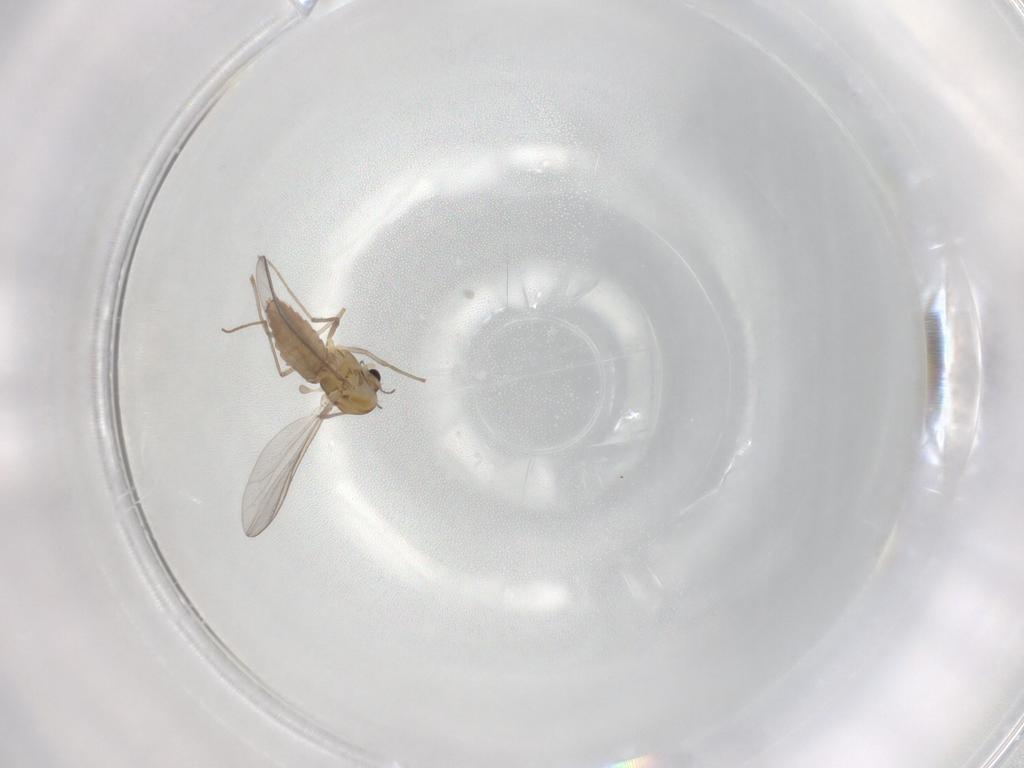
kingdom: Animalia
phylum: Arthropoda
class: Insecta
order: Diptera
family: Chironomidae
